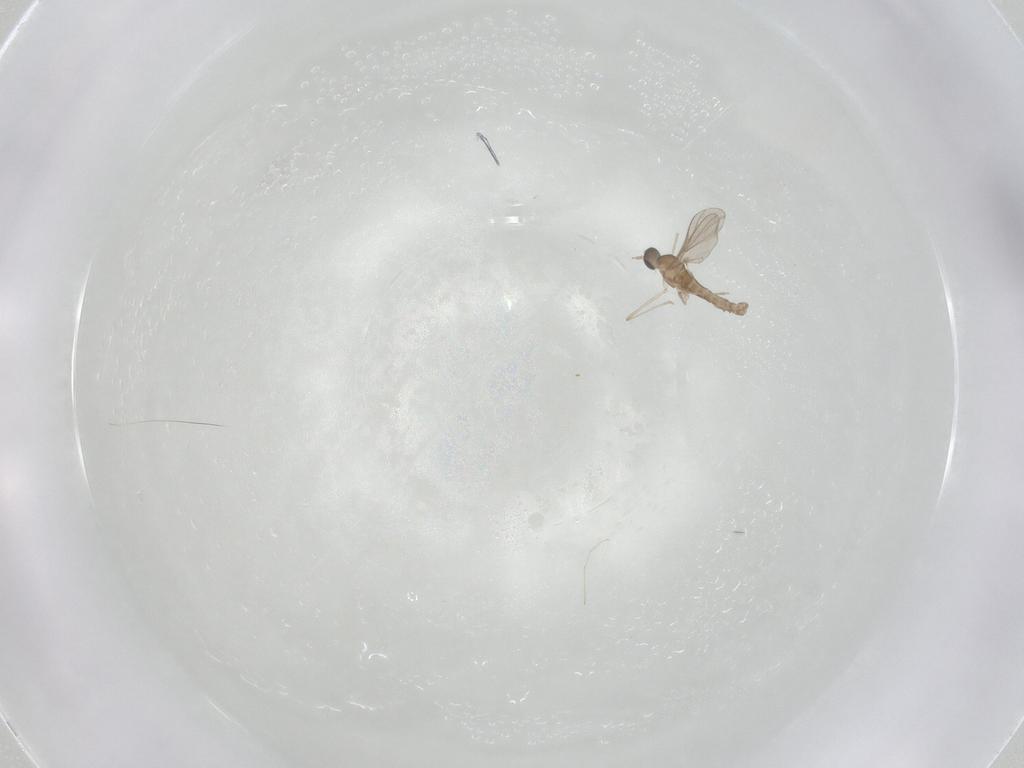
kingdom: Animalia
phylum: Arthropoda
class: Insecta
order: Diptera
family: Cecidomyiidae
